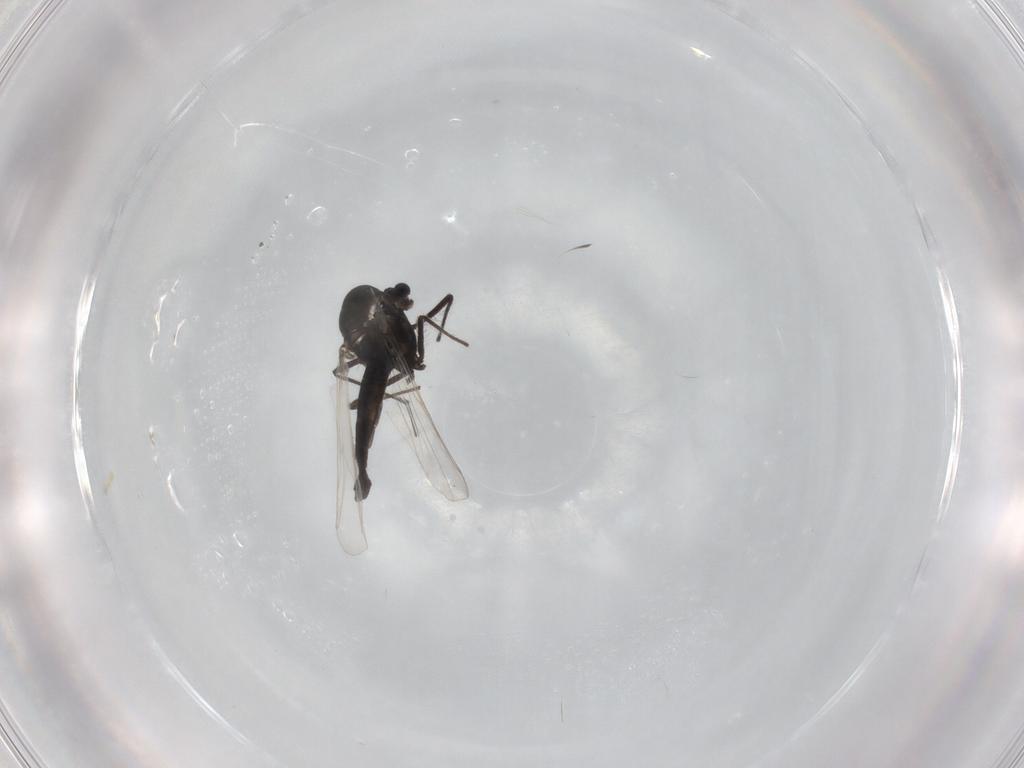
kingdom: Animalia
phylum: Arthropoda
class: Insecta
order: Diptera
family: Chironomidae
